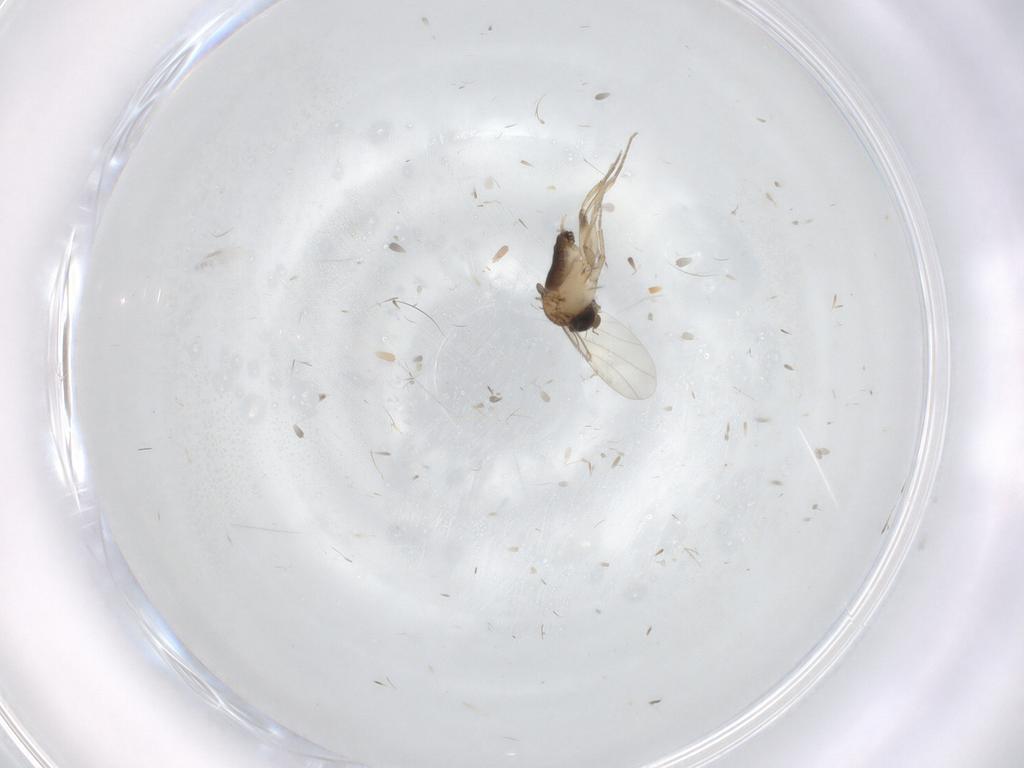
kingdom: Animalia
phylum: Arthropoda
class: Insecta
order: Diptera
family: Phoridae
